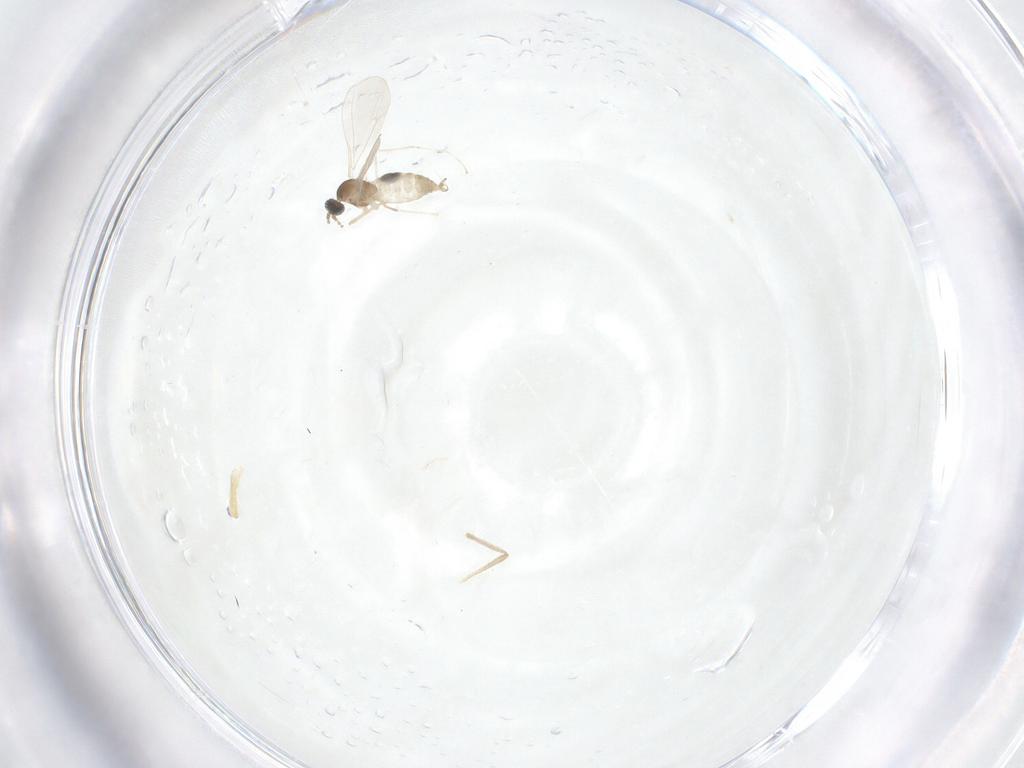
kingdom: Animalia
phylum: Arthropoda
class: Insecta
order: Diptera
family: Cecidomyiidae
